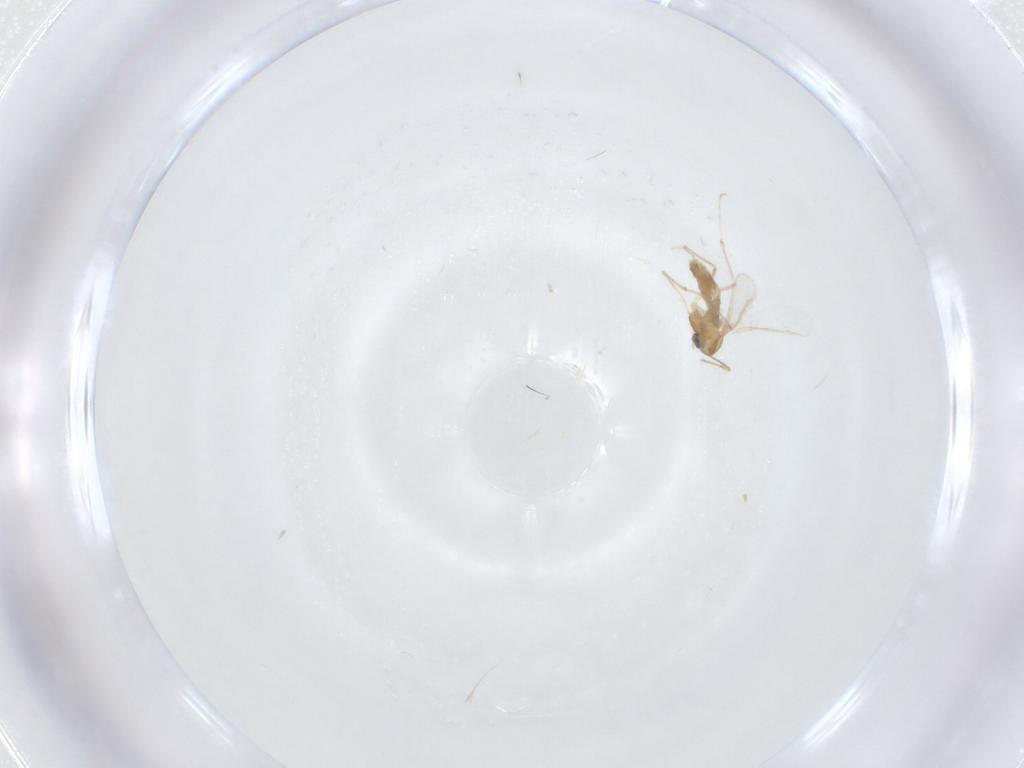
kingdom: Animalia
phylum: Arthropoda
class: Insecta
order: Diptera
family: Chironomidae
